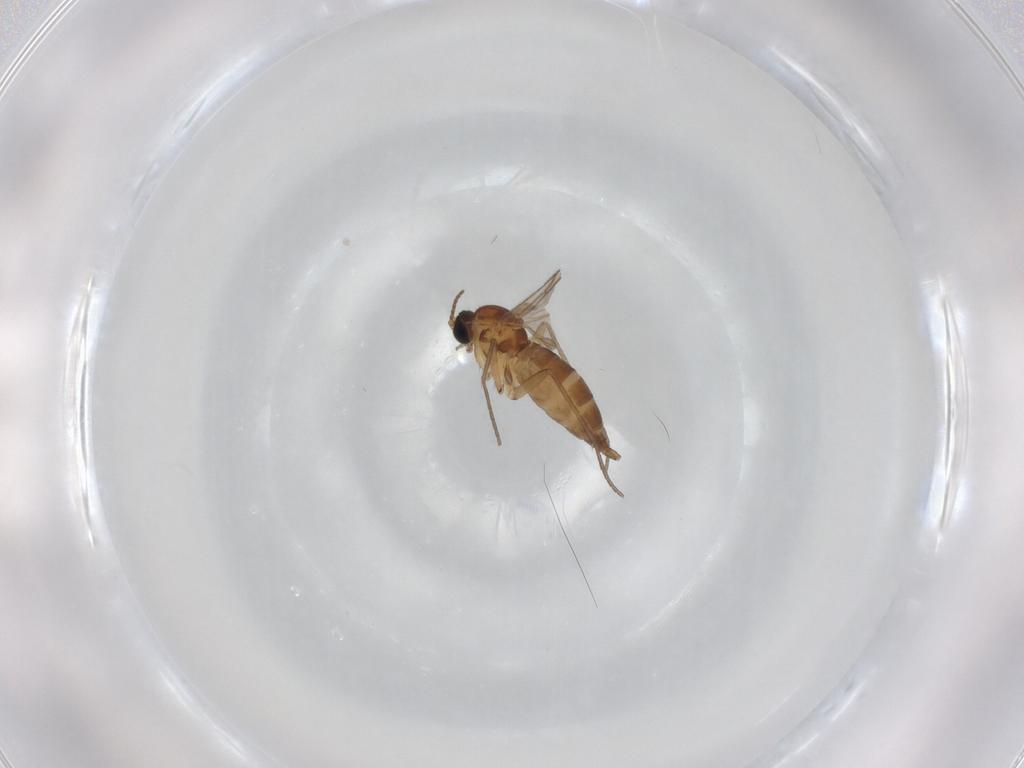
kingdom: Animalia
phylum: Arthropoda
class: Insecta
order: Diptera
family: Sciaridae
